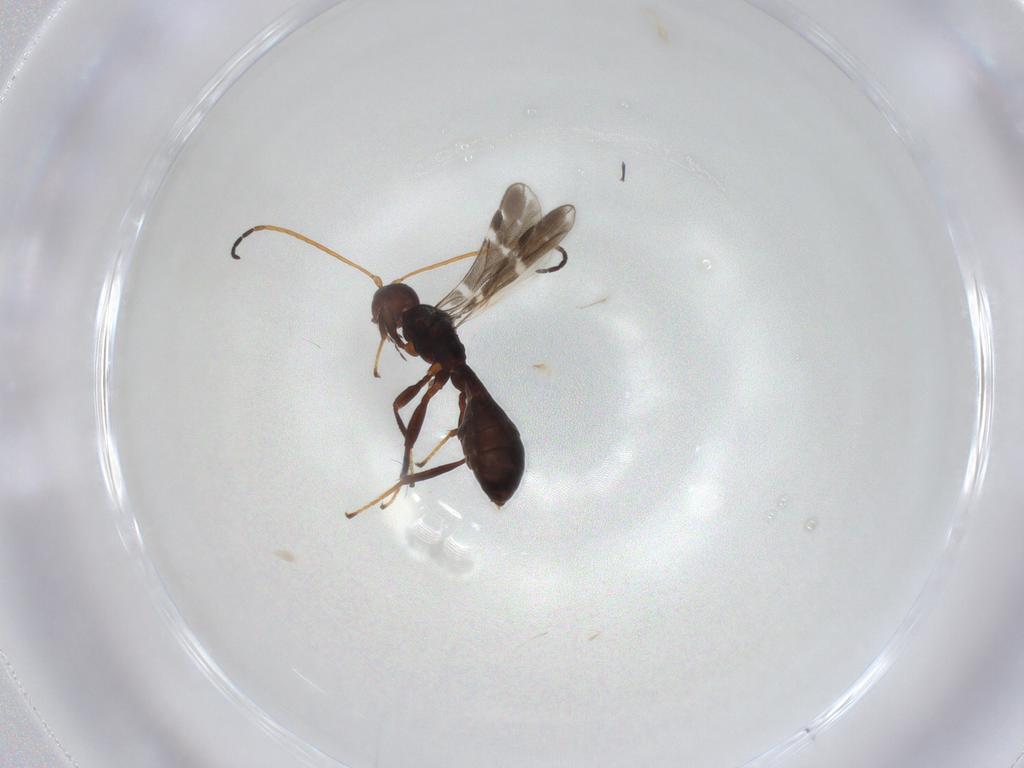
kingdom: Animalia
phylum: Arthropoda
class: Insecta
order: Hymenoptera
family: Braconidae
